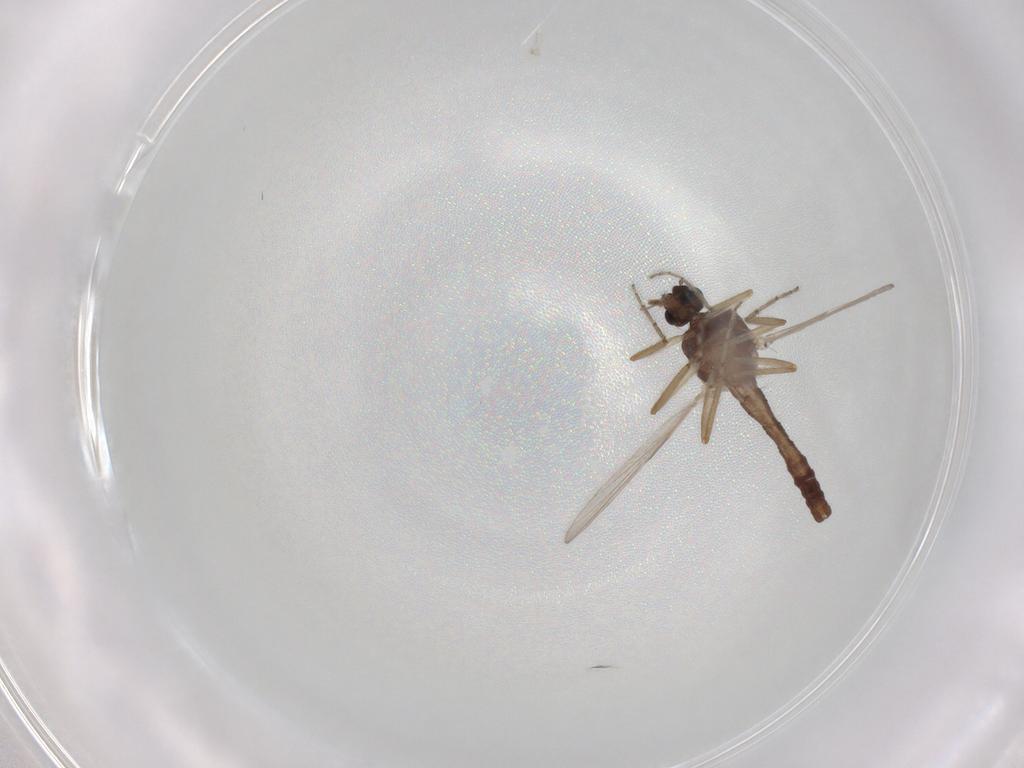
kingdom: Animalia
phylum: Arthropoda
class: Insecta
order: Diptera
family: Ceratopogonidae
